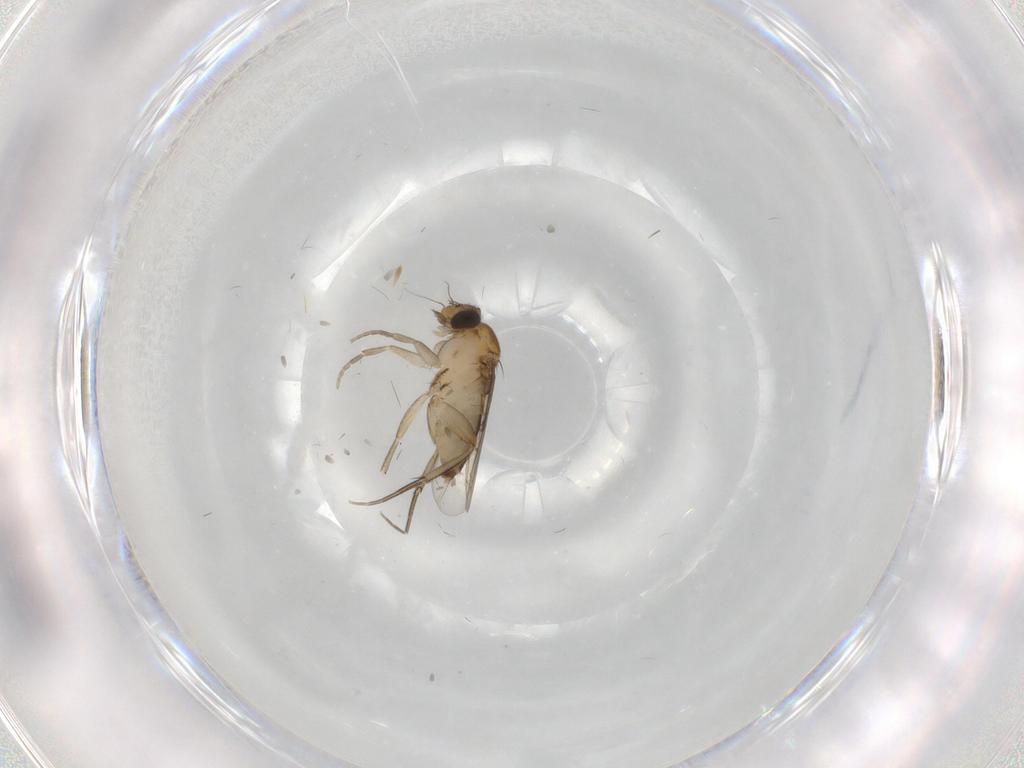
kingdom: Animalia
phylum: Arthropoda
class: Insecta
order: Diptera
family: Phoridae
